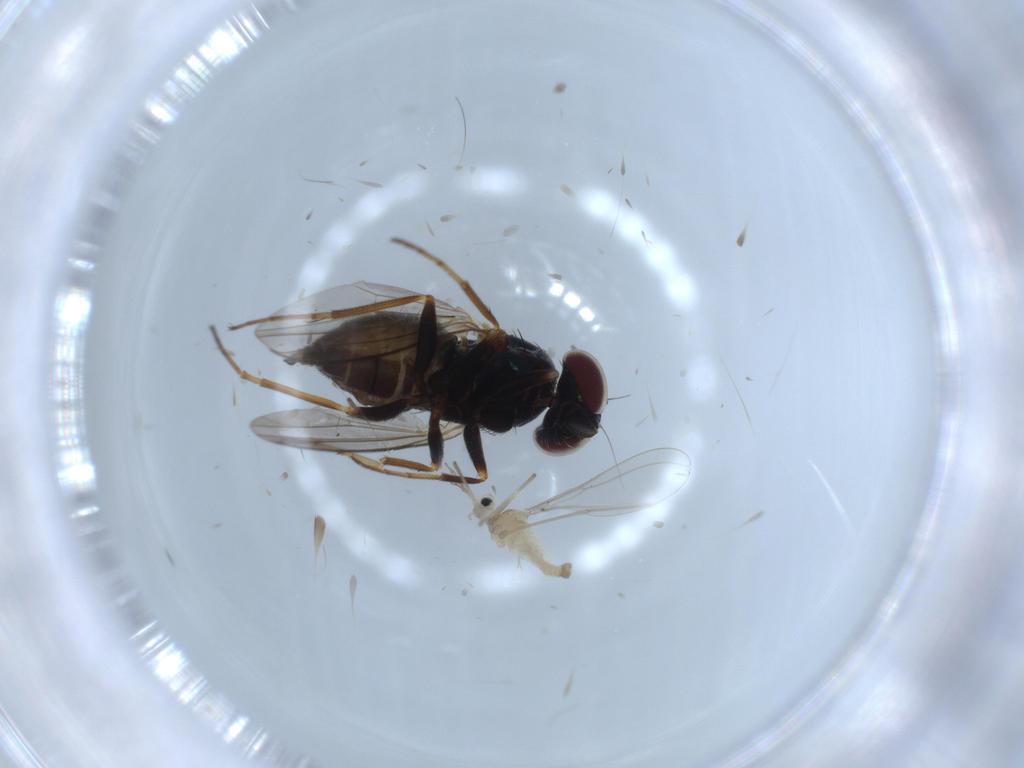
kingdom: Animalia
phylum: Arthropoda
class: Insecta
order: Diptera
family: Dolichopodidae
